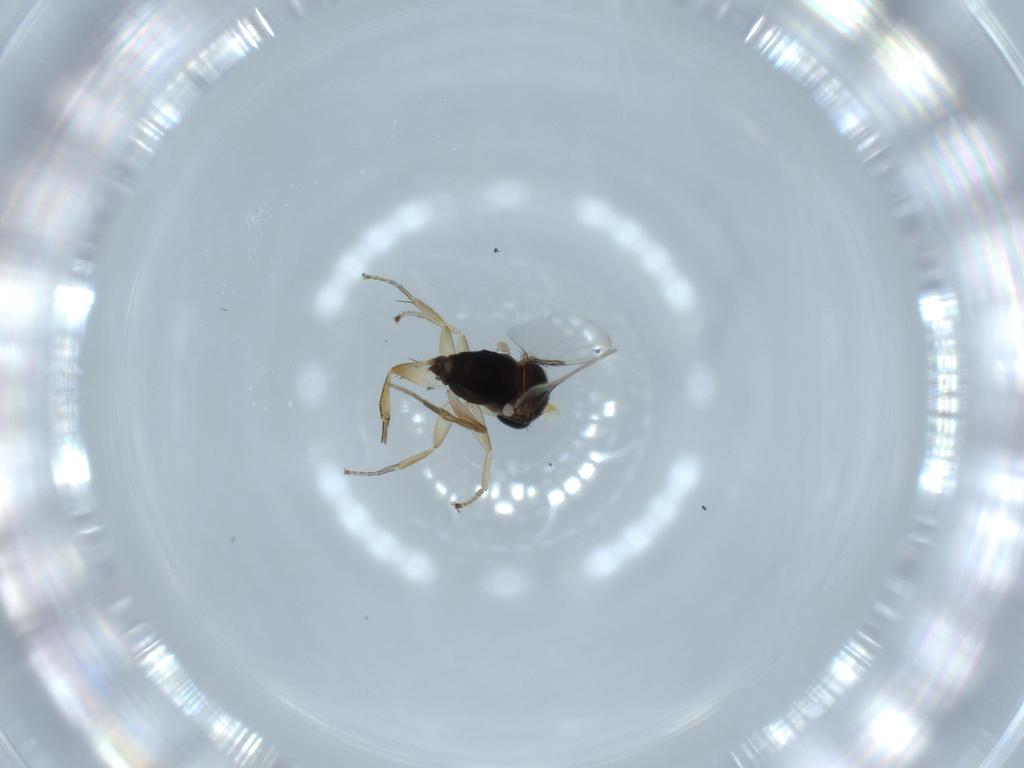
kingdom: Animalia
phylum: Arthropoda
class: Insecta
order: Diptera
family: Phoridae
